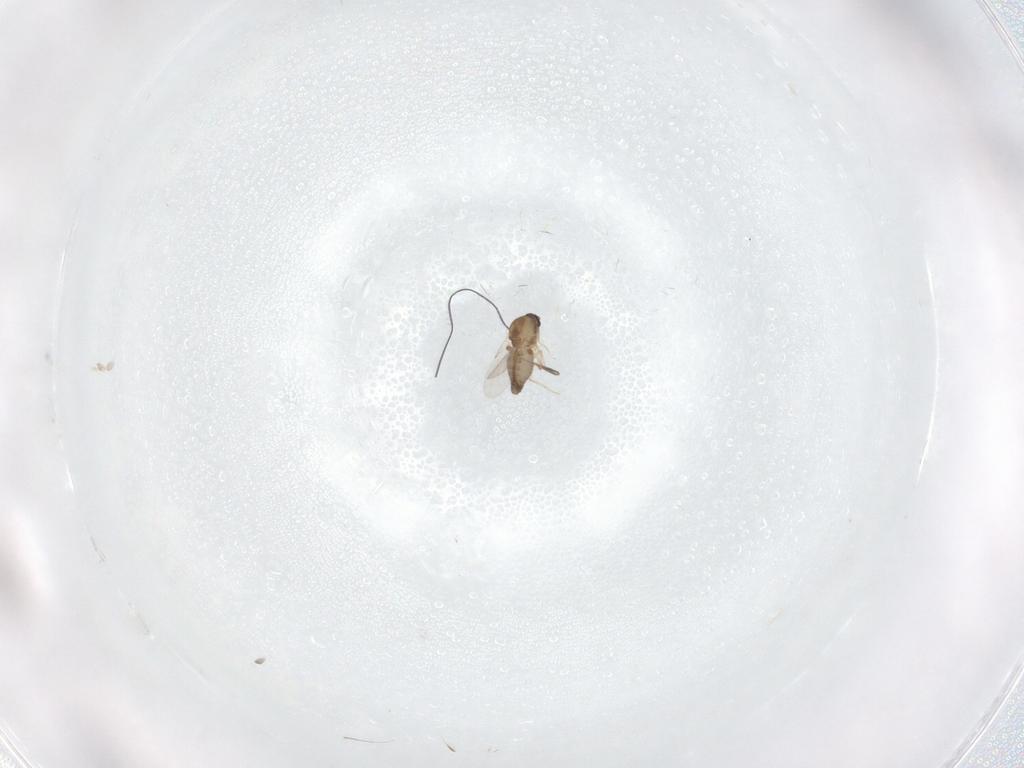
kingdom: Animalia
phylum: Arthropoda
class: Insecta
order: Diptera
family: Ceratopogonidae
